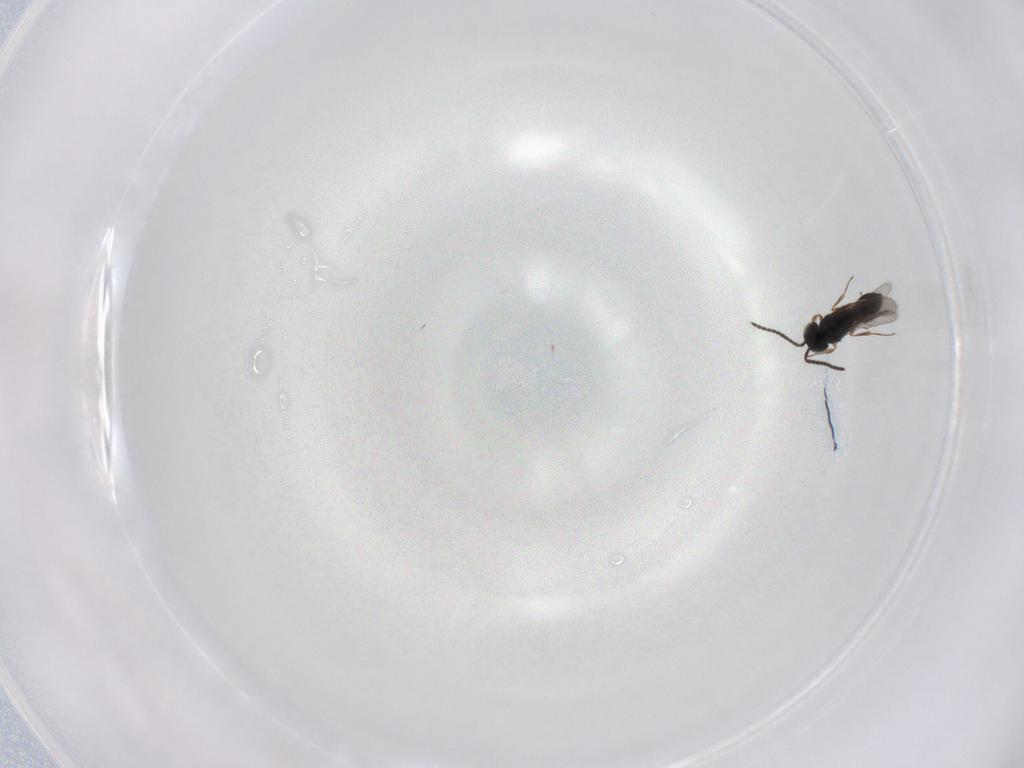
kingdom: Animalia
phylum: Arthropoda
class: Insecta
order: Hymenoptera
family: Scelionidae
